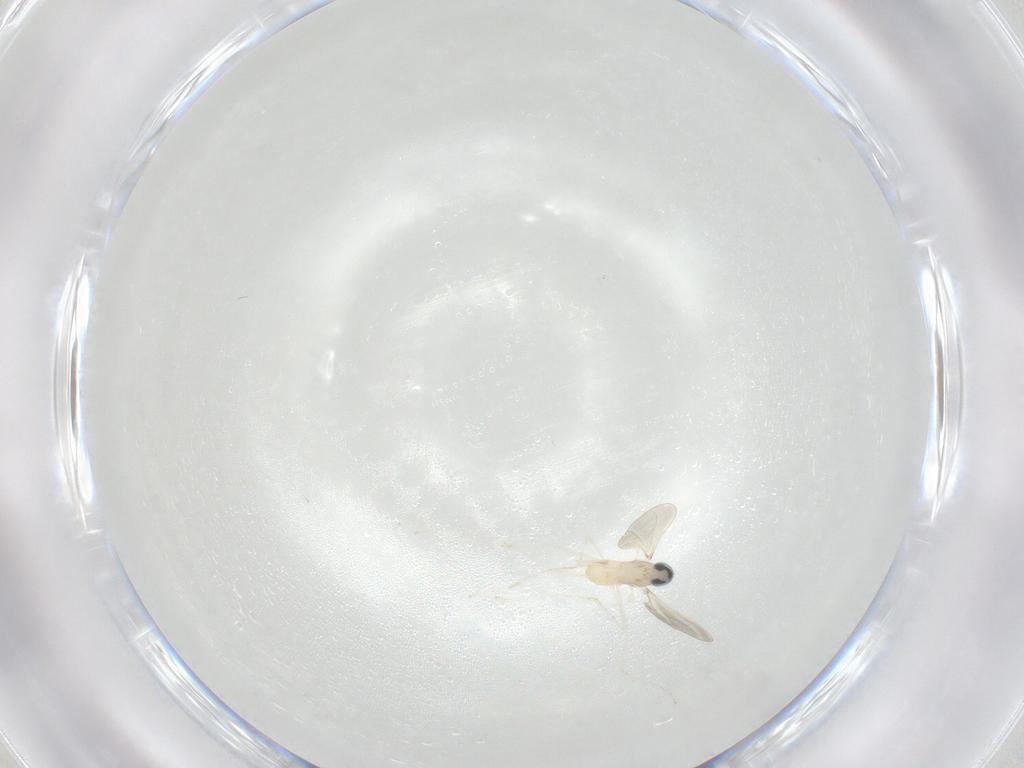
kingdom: Animalia
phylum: Arthropoda
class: Insecta
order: Diptera
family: Cecidomyiidae
